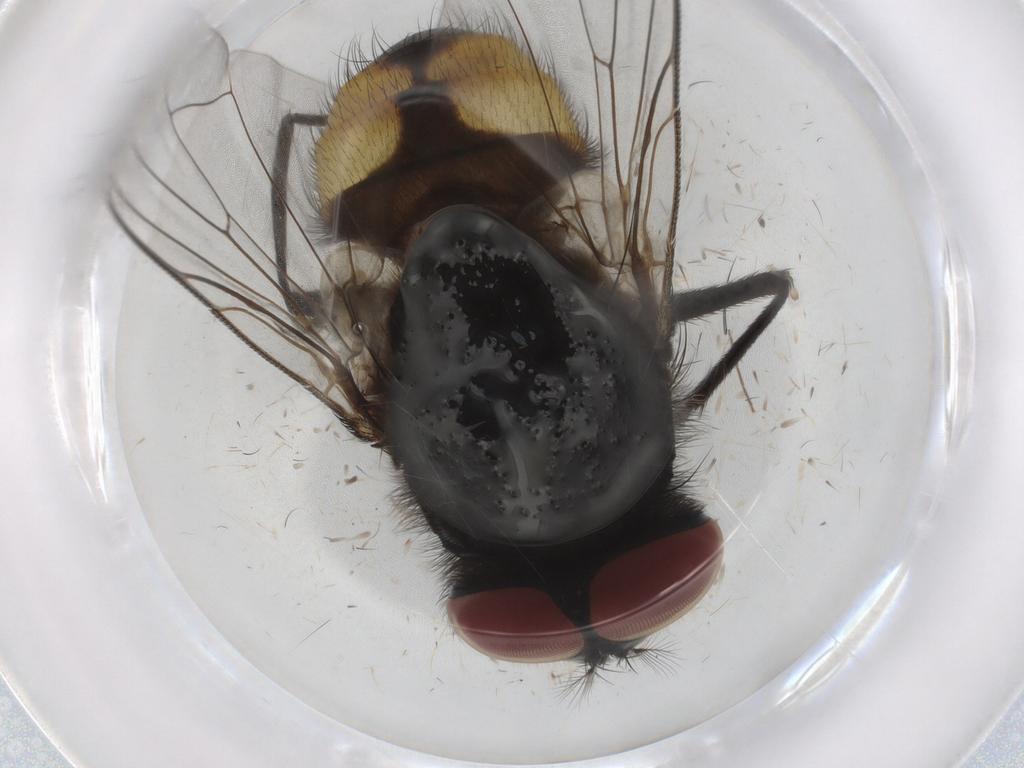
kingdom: Animalia
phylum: Arthropoda
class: Insecta
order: Diptera
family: Muscidae
